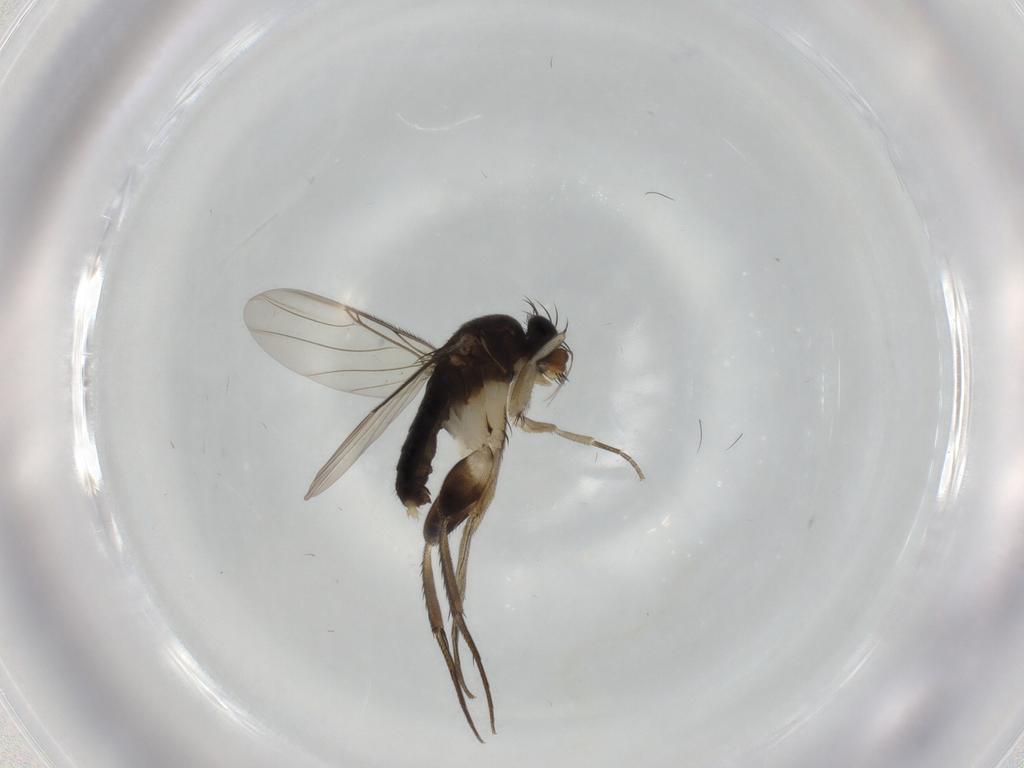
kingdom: Animalia
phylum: Arthropoda
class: Insecta
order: Diptera
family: Phoridae
